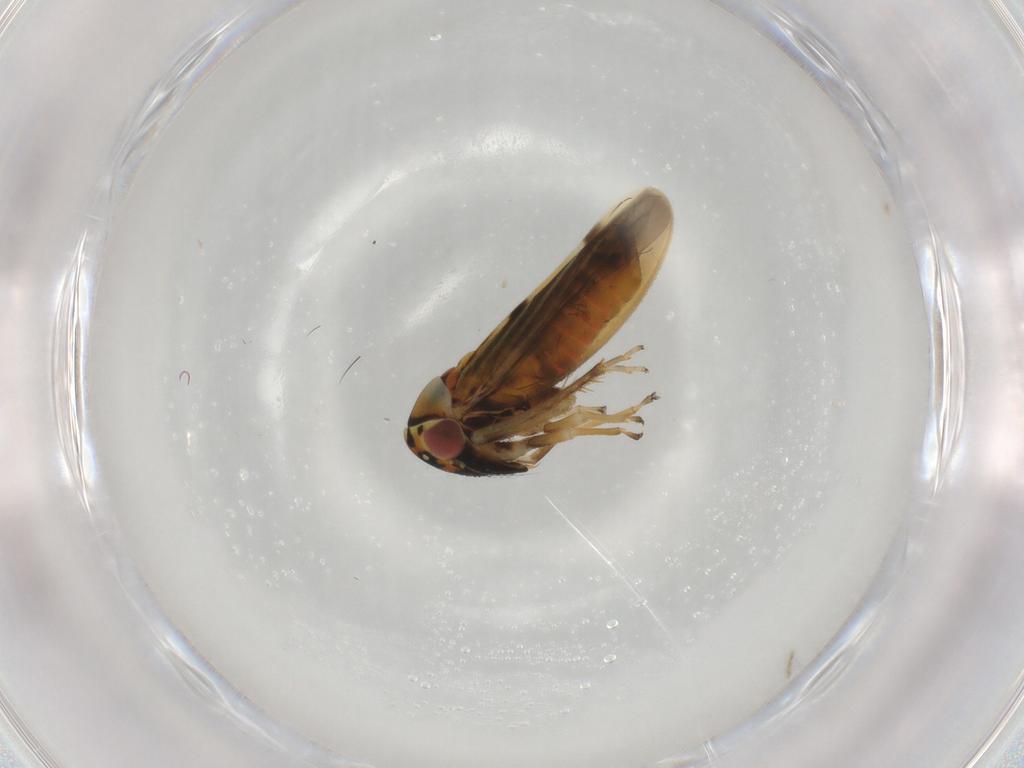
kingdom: Animalia
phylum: Arthropoda
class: Insecta
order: Hemiptera
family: Cicadellidae
